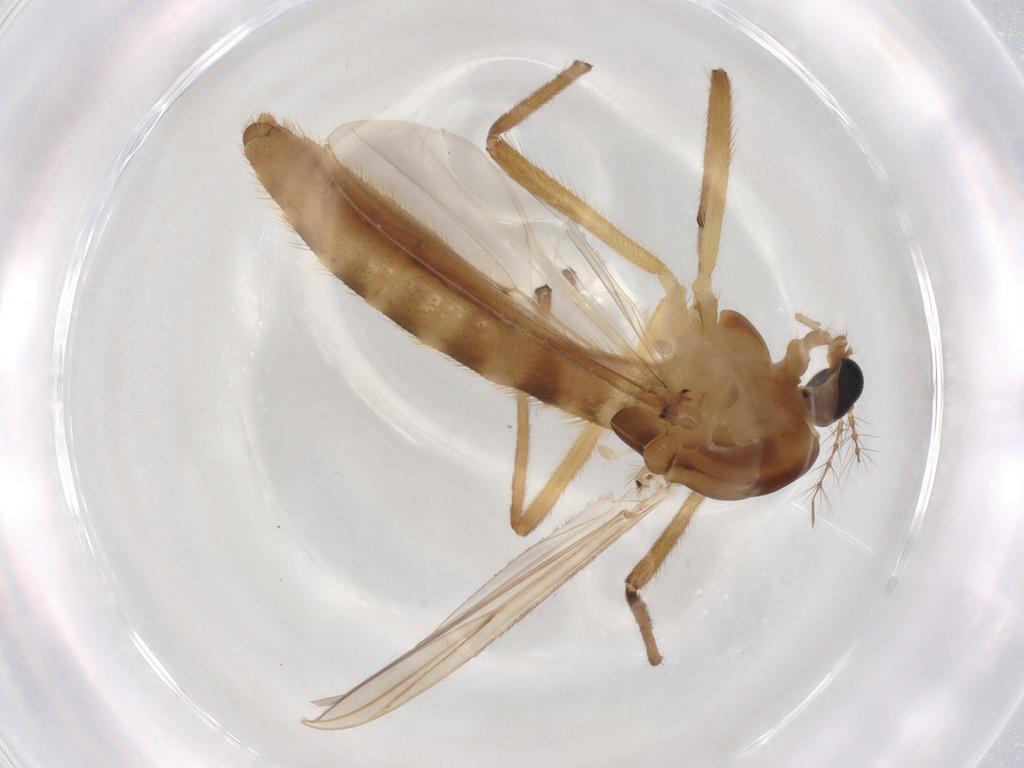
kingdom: Animalia
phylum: Arthropoda
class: Insecta
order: Diptera
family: Chironomidae
